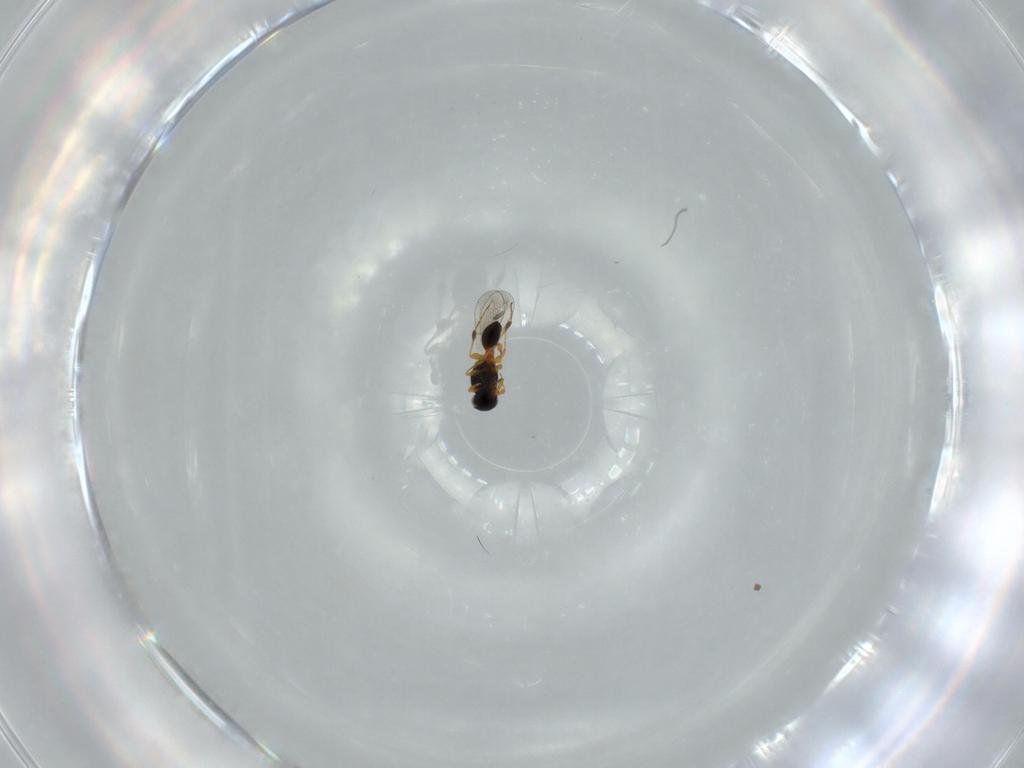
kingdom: Animalia
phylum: Arthropoda
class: Insecta
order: Hymenoptera
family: Platygastridae
